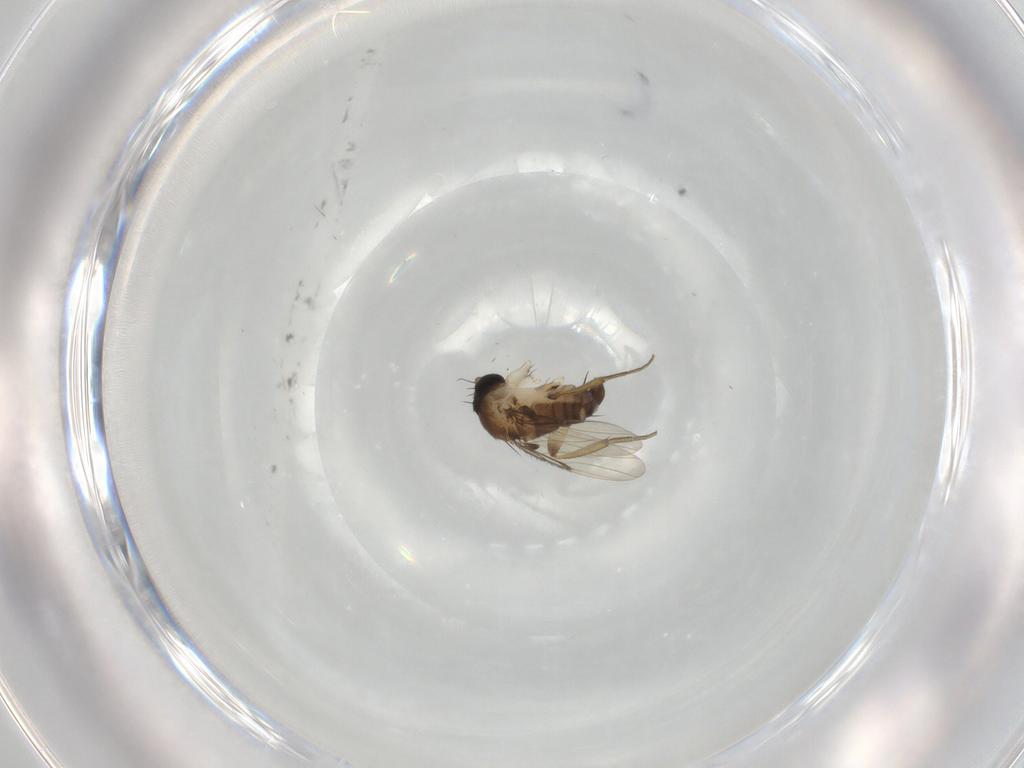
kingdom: Animalia
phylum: Arthropoda
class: Insecta
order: Diptera
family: Phoridae
